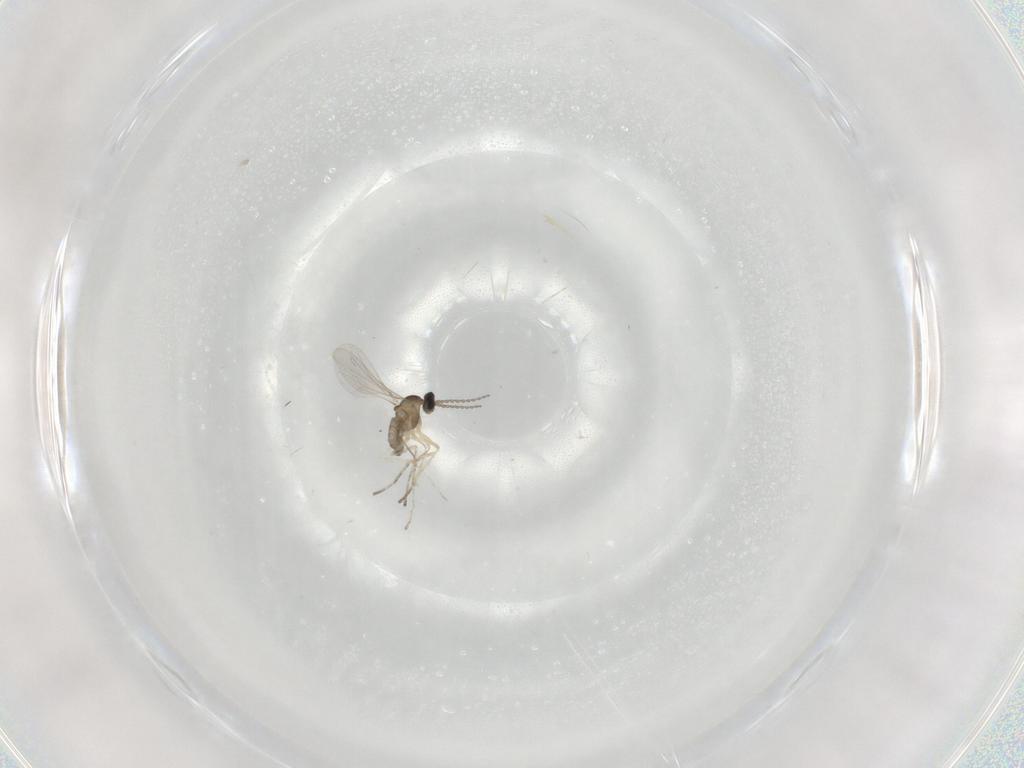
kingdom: Animalia
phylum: Arthropoda
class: Insecta
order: Diptera
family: Cecidomyiidae
